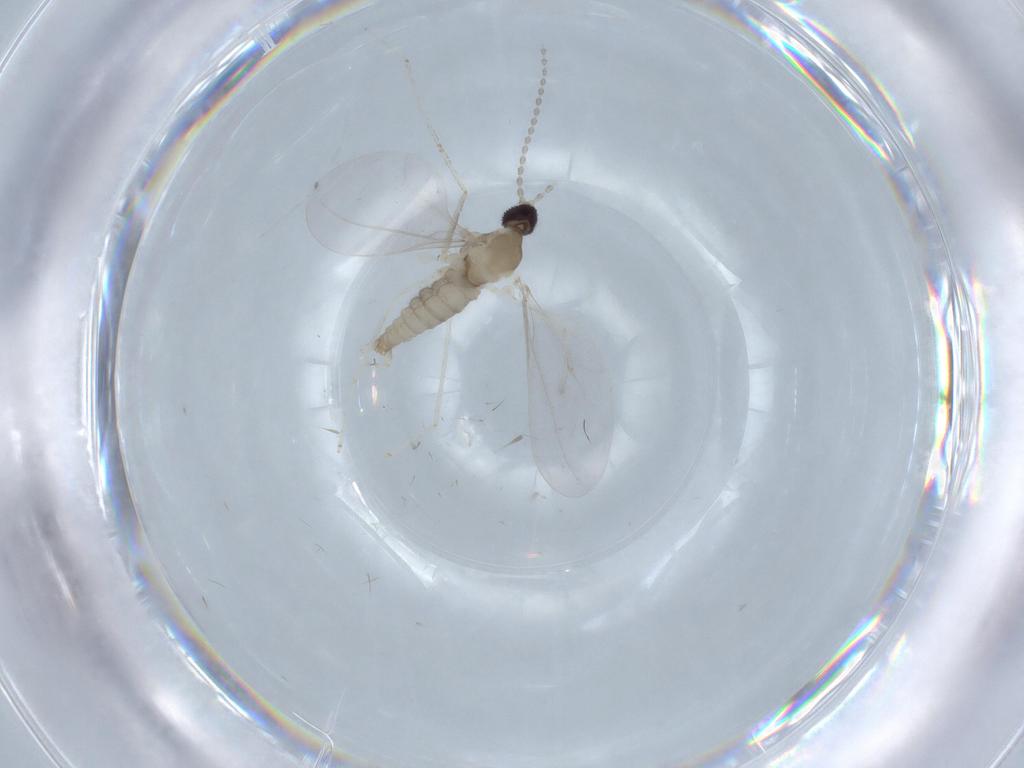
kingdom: Animalia
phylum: Arthropoda
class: Insecta
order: Diptera
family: Cecidomyiidae
